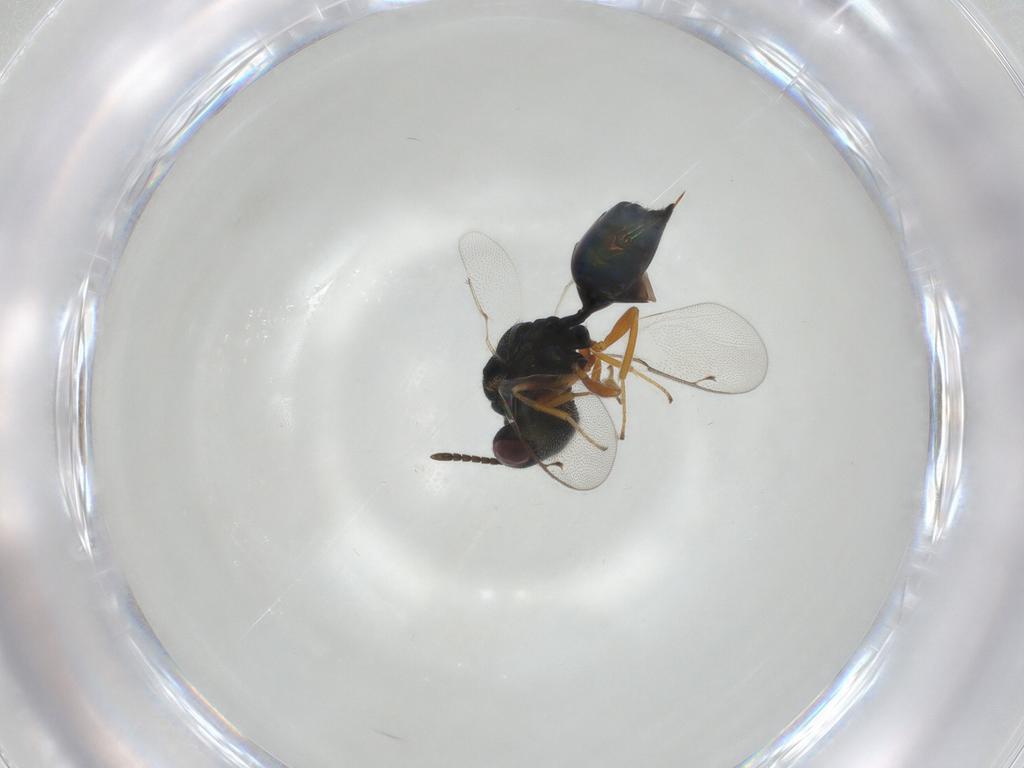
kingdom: Animalia
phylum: Arthropoda
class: Insecta
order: Hymenoptera
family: Pteromalidae
